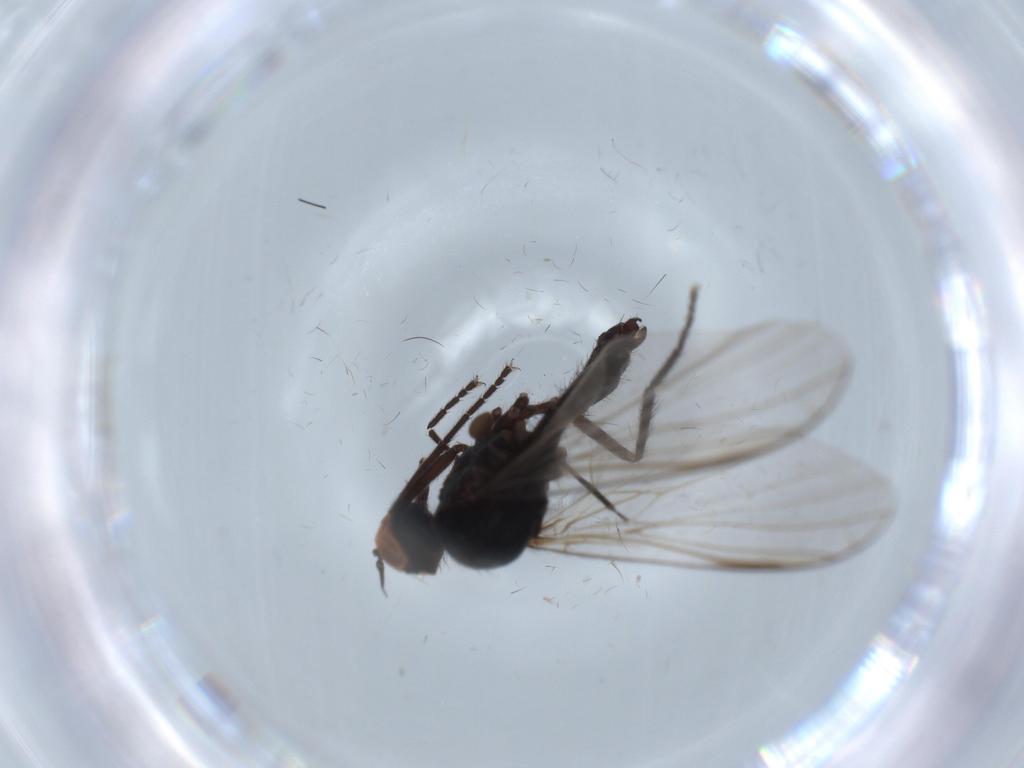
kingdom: Animalia
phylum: Arthropoda
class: Insecta
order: Diptera
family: Empididae
